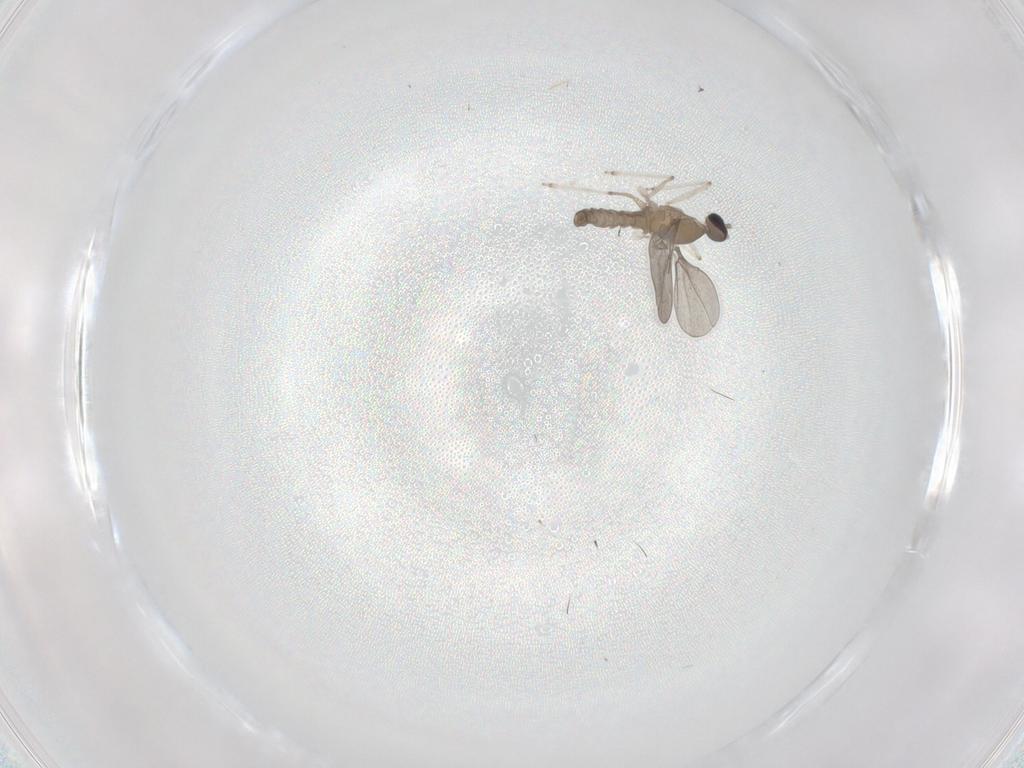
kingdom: Animalia
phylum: Arthropoda
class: Insecta
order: Diptera
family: Cecidomyiidae
